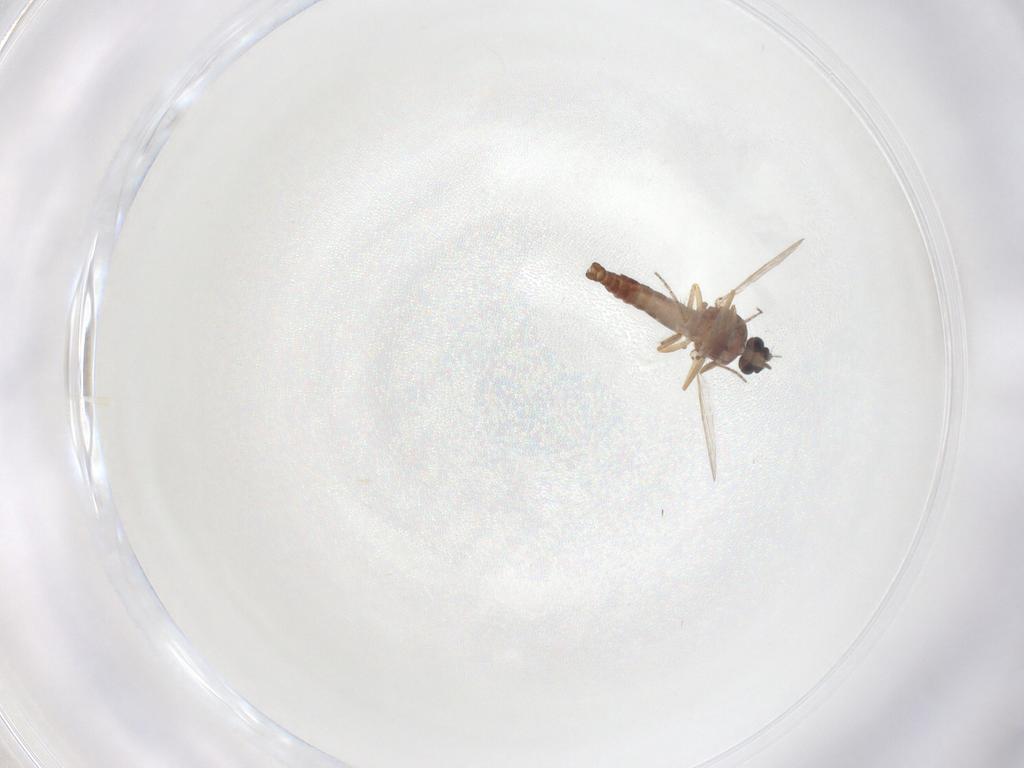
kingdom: Animalia
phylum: Arthropoda
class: Insecta
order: Diptera
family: Ceratopogonidae
